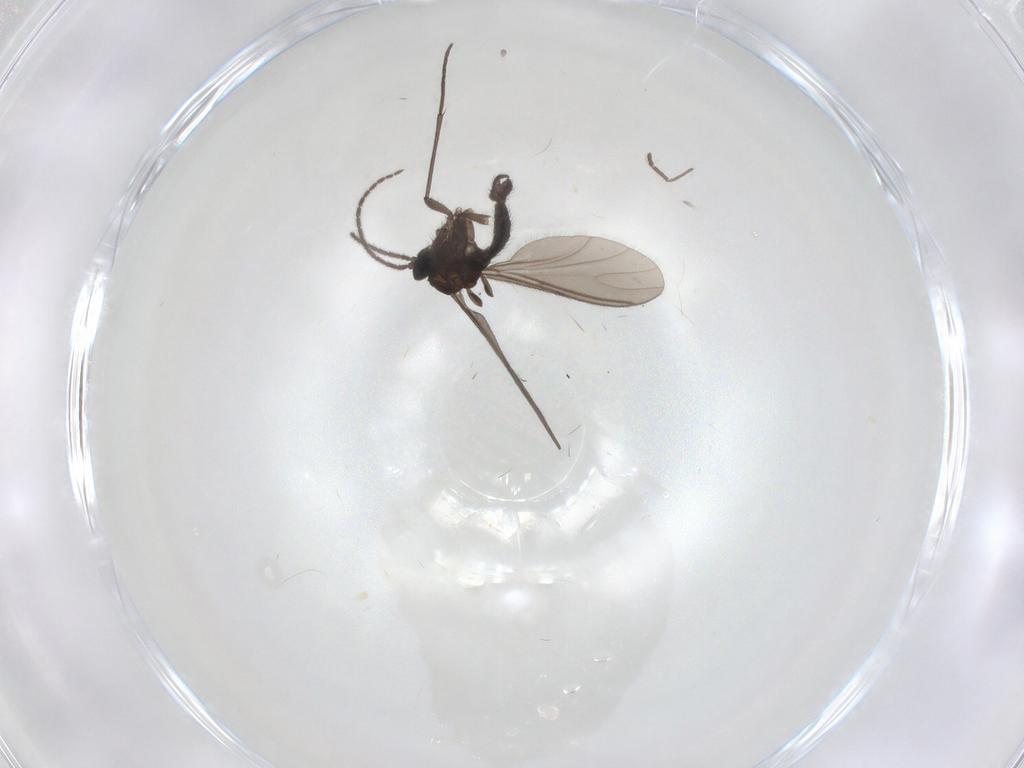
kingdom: Animalia
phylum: Arthropoda
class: Insecta
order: Diptera
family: Sciaridae
